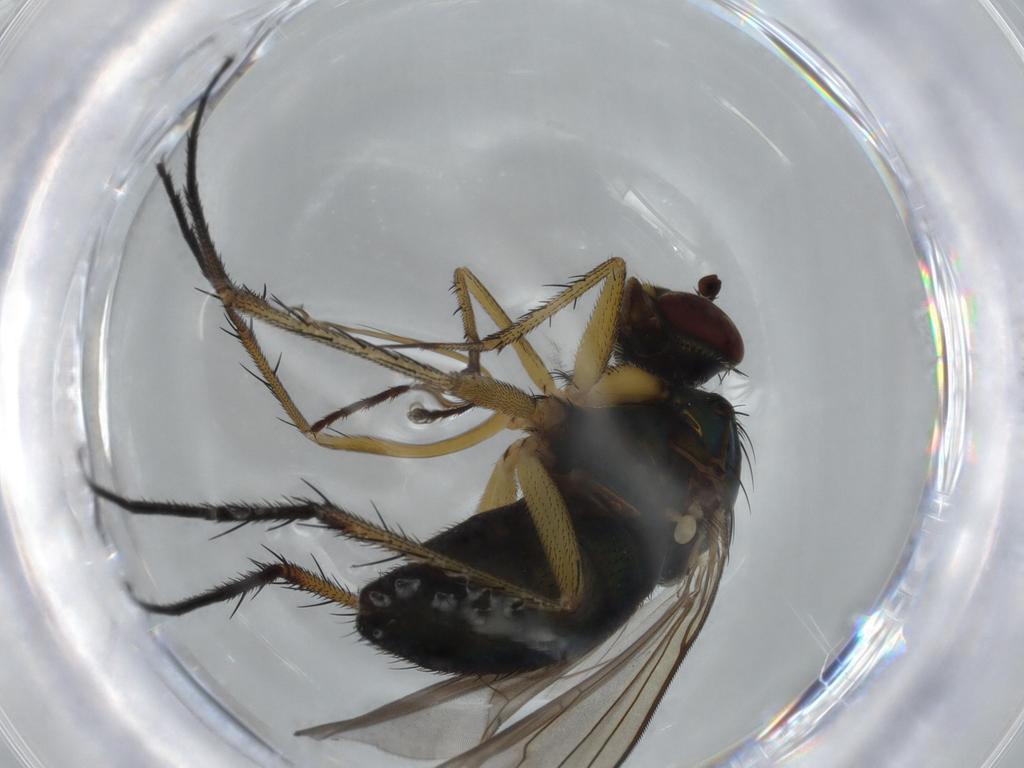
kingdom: Animalia
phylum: Arthropoda
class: Insecta
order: Diptera
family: Dolichopodidae
